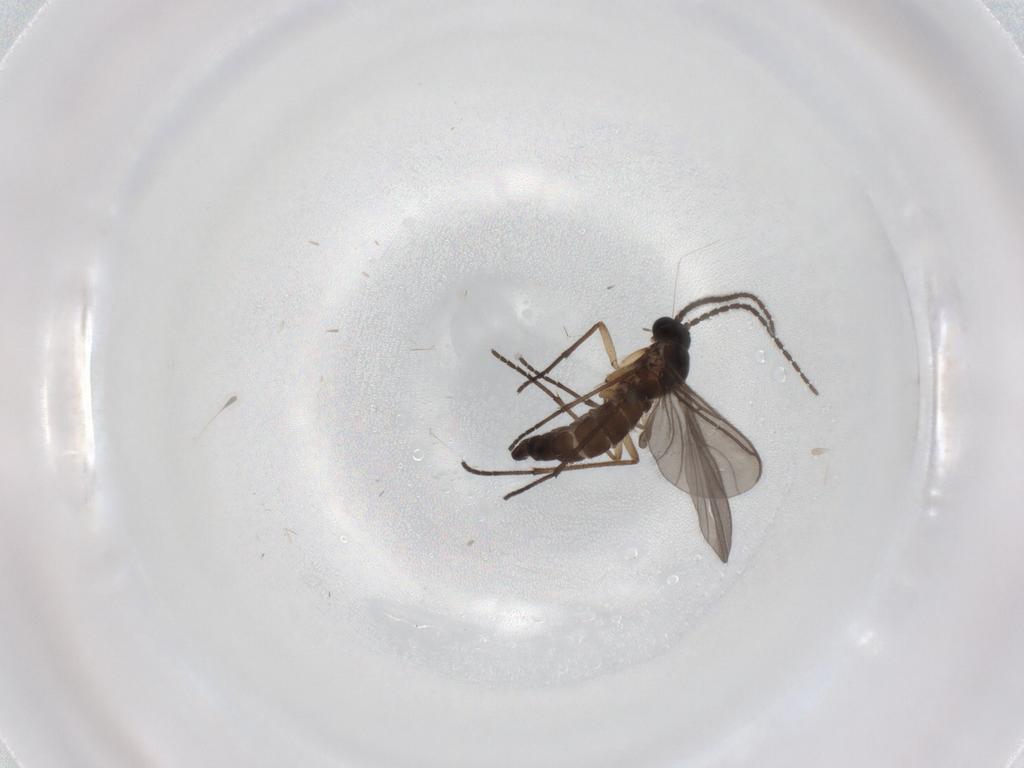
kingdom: Animalia
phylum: Arthropoda
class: Insecta
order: Diptera
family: Sciaridae
